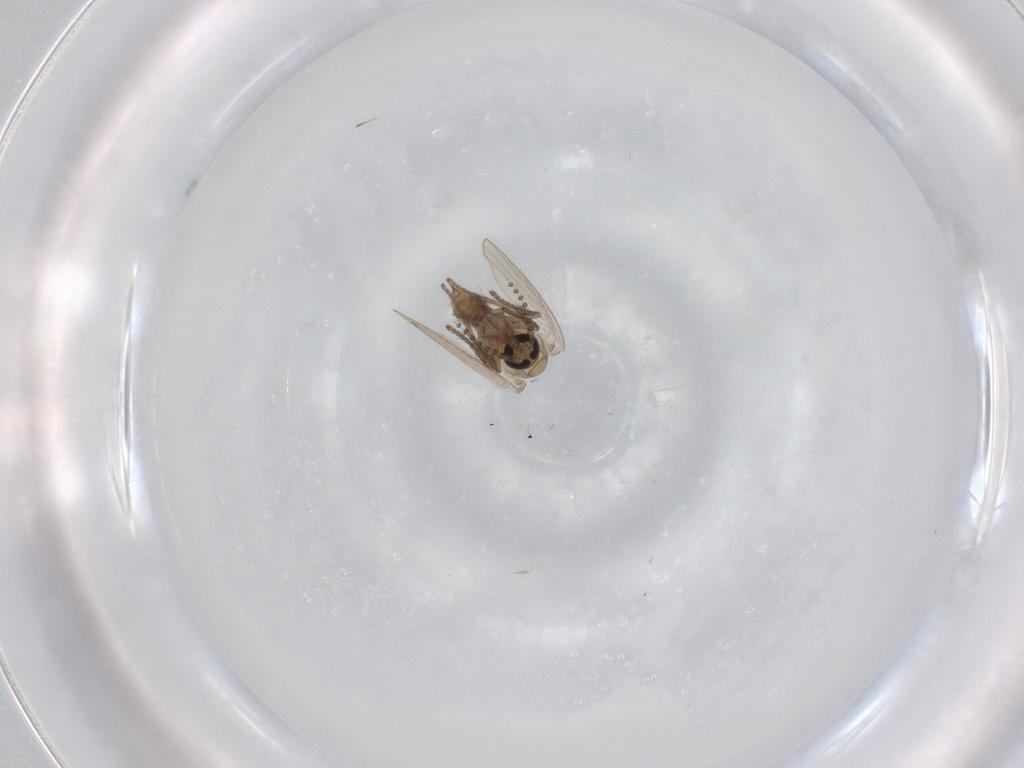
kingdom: Animalia
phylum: Arthropoda
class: Insecta
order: Diptera
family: Psychodidae
